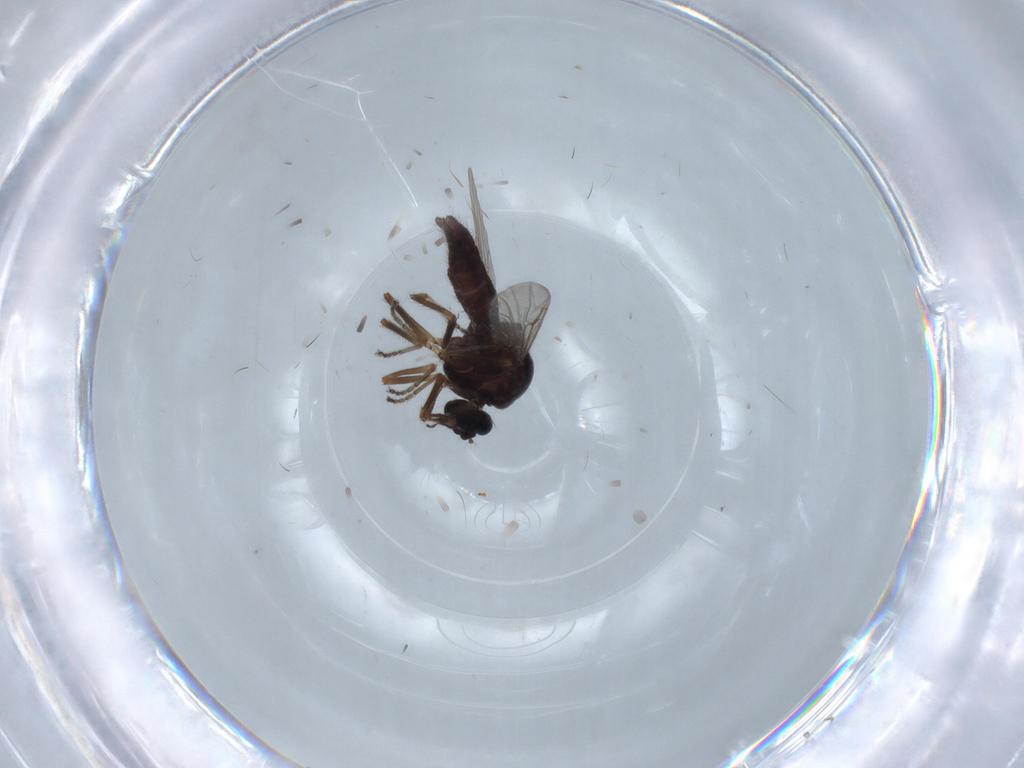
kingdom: Animalia
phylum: Arthropoda
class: Insecta
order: Diptera
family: Ceratopogonidae
